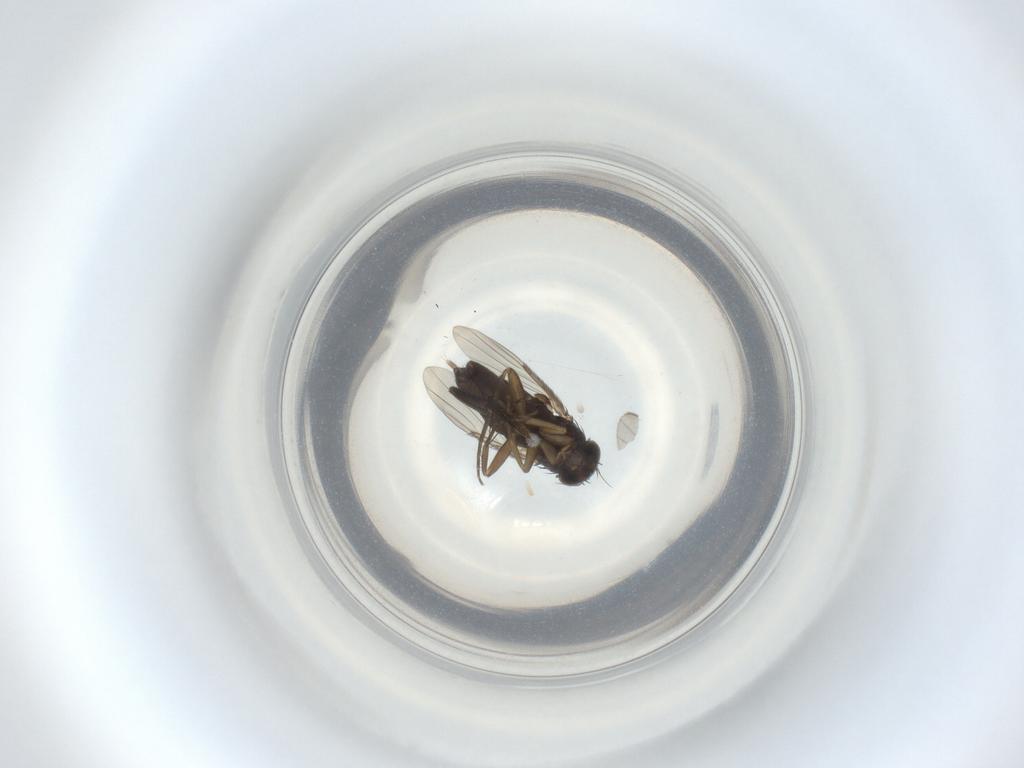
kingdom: Animalia
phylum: Arthropoda
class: Insecta
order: Diptera
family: Phoridae
